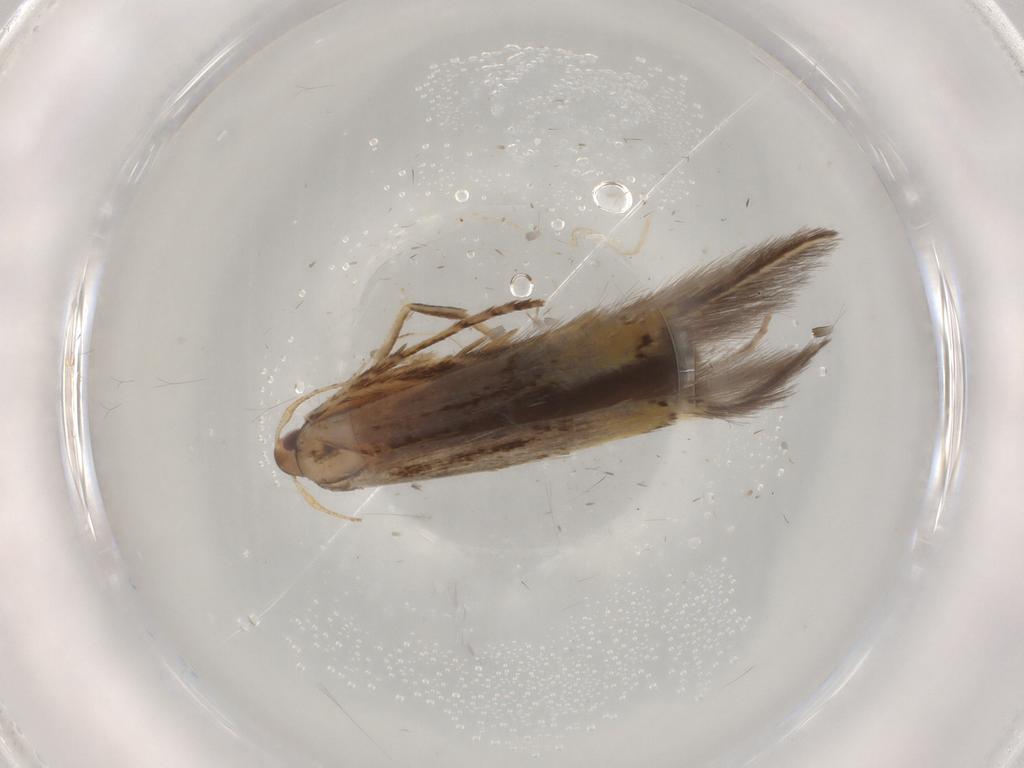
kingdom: Animalia
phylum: Arthropoda
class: Insecta
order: Lepidoptera
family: Cosmopterigidae
